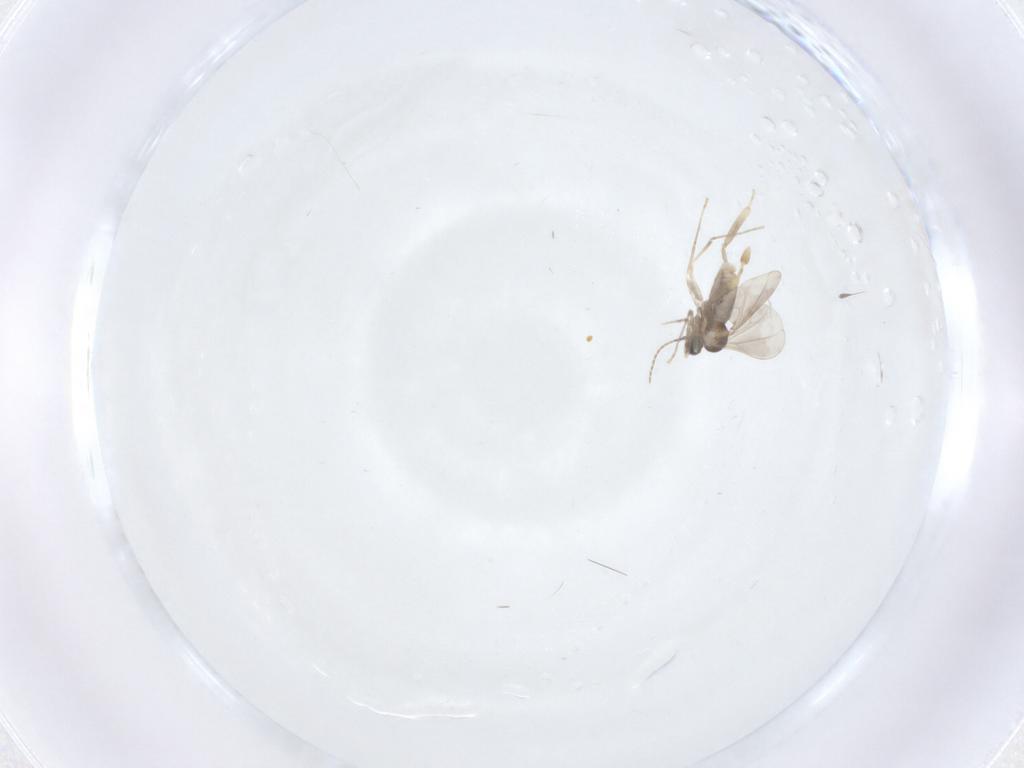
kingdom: Animalia
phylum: Arthropoda
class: Insecta
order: Diptera
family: Cecidomyiidae
